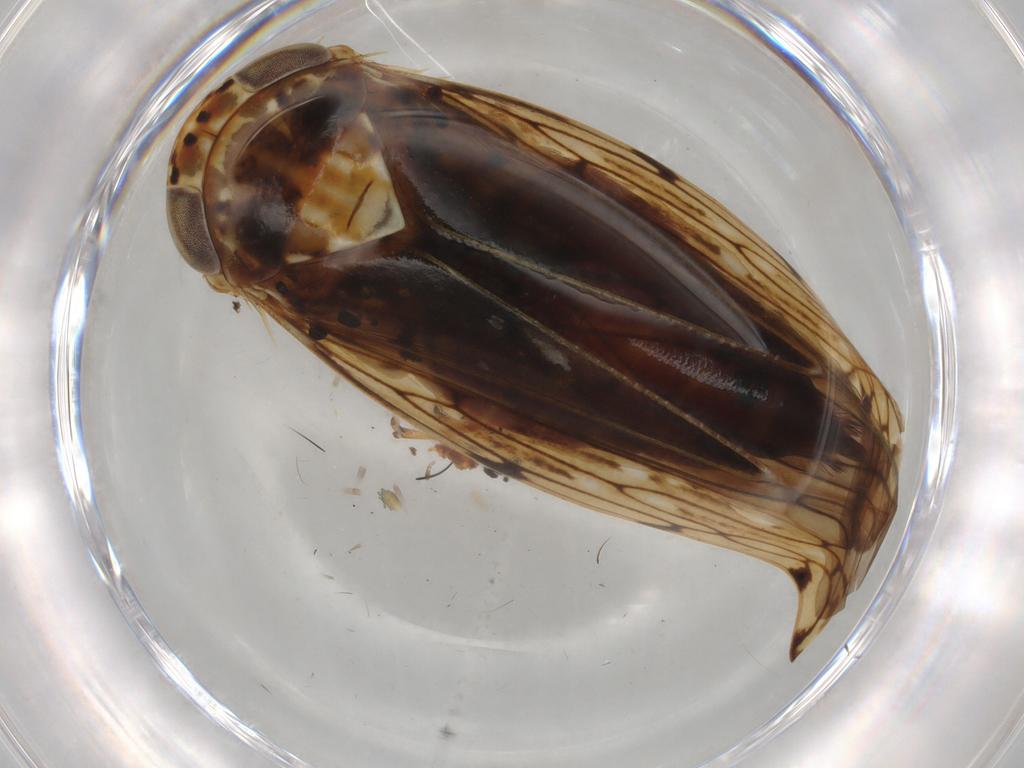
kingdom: Animalia
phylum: Arthropoda
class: Insecta
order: Hemiptera
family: Cicadellidae
